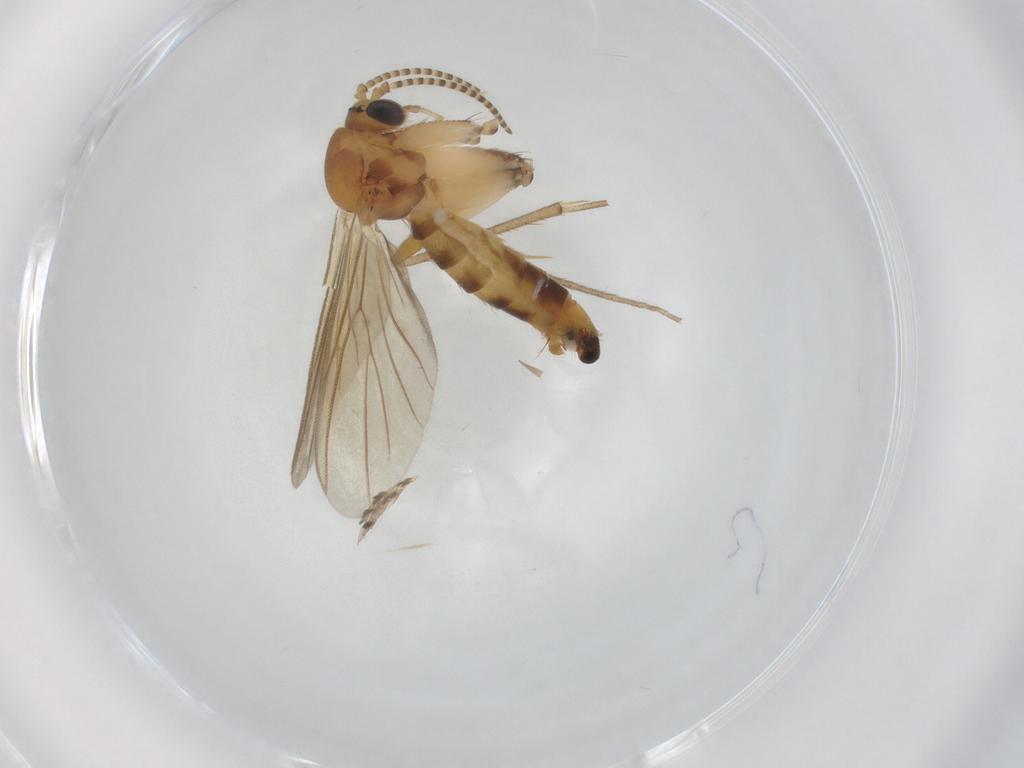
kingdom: Animalia
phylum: Arthropoda
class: Insecta
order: Diptera
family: Mycetophilidae
